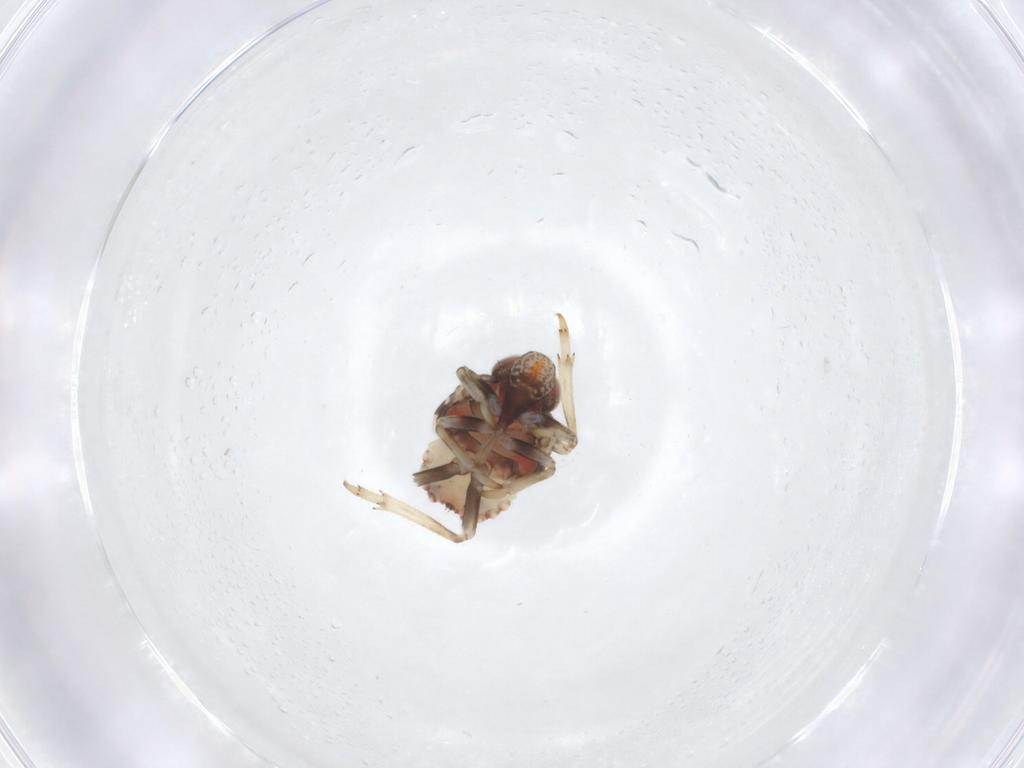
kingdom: Animalia
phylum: Arthropoda
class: Insecta
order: Hemiptera
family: Issidae
